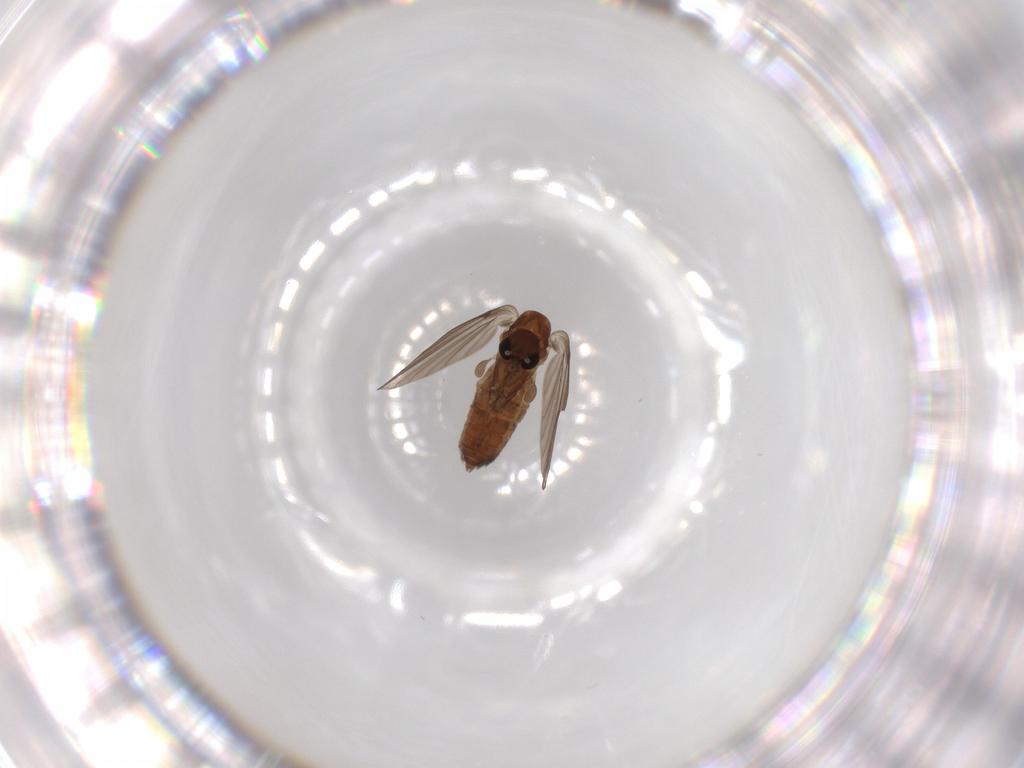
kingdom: Animalia
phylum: Arthropoda
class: Insecta
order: Diptera
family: Psychodidae
